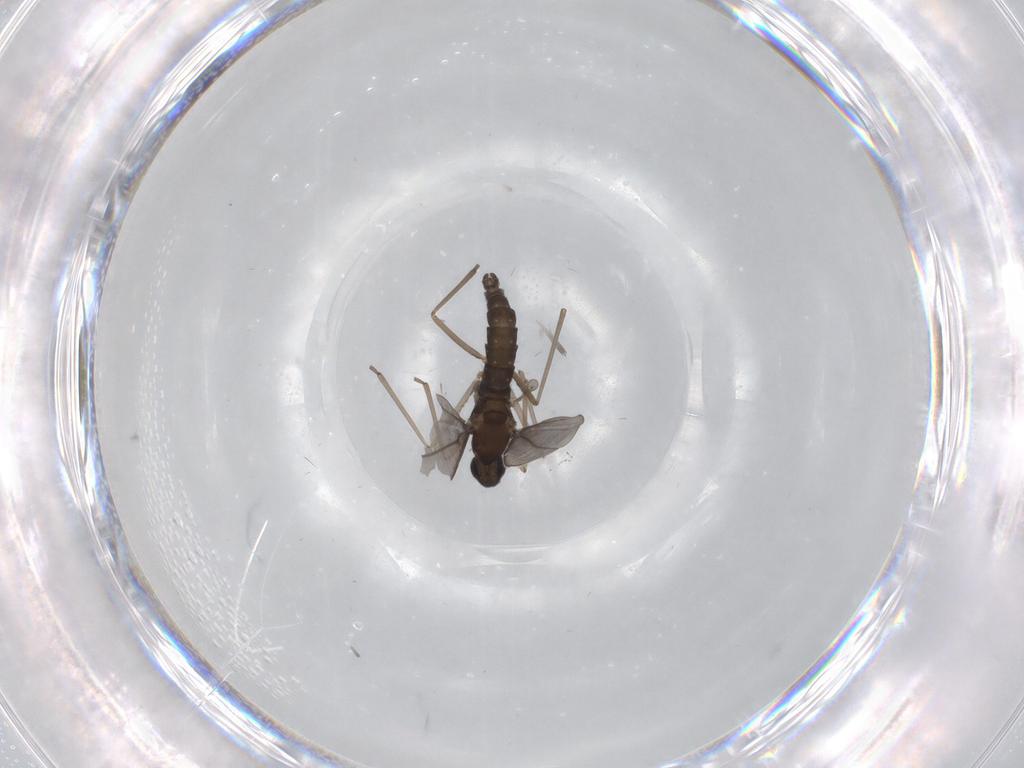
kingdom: Animalia
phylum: Arthropoda
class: Insecta
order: Diptera
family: Cecidomyiidae
